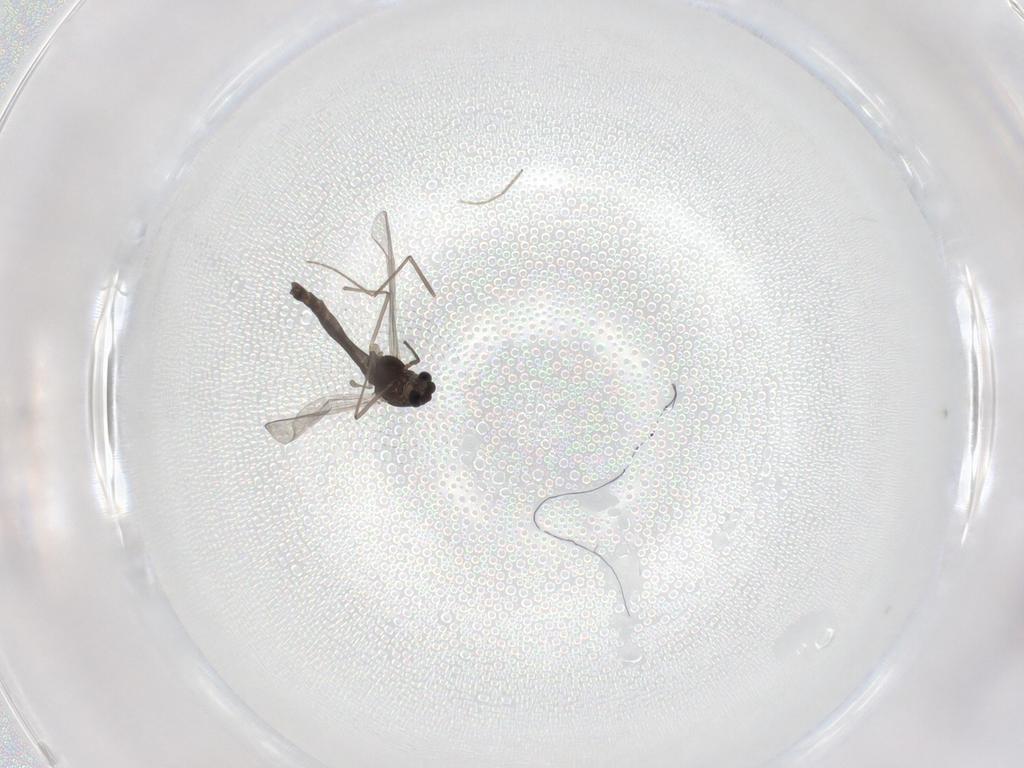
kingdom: Animalia
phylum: Arthropoda
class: Insecta
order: Diptera
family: Chironomidae
